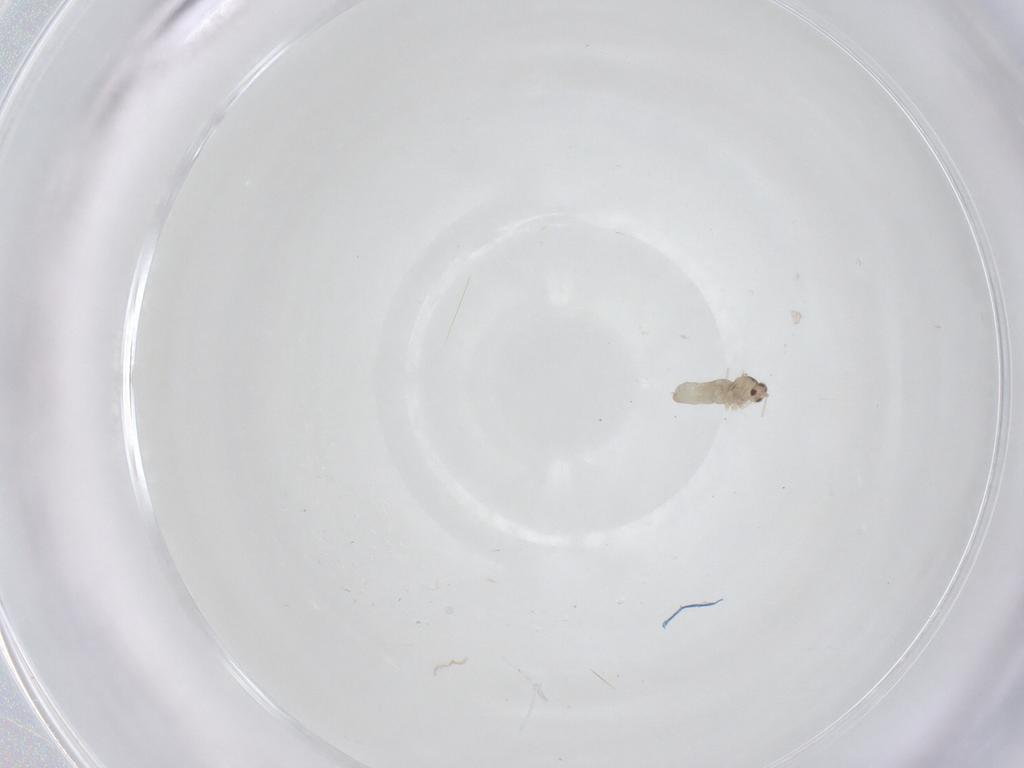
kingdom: Animalia
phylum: Arthropoda
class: Insecta
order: Diptera
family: Cecidomyiidae
